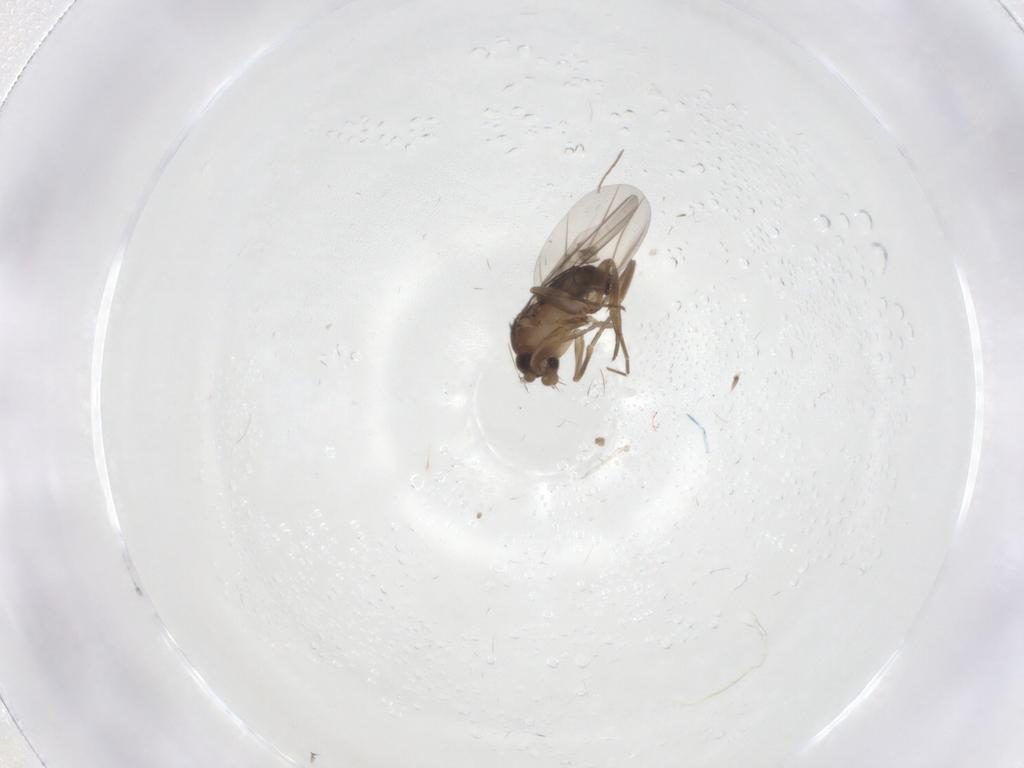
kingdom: Animalia
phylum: Arthropoda
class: Insecta
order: Diptera
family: Phoridae
